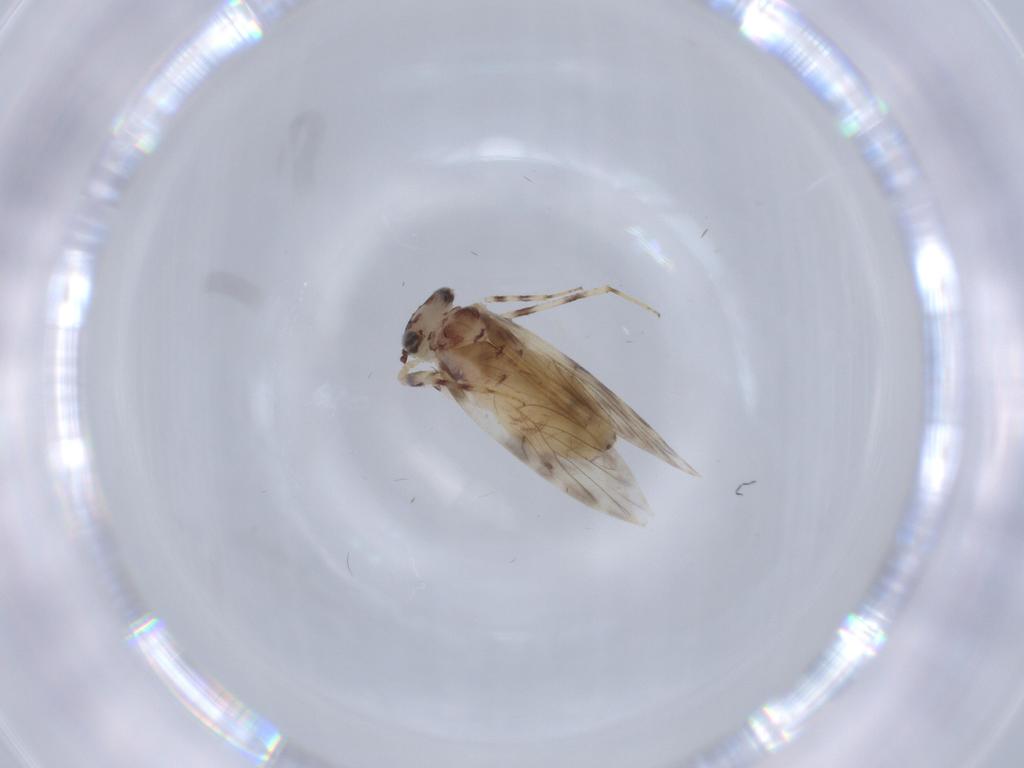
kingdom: Animalia
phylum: Arthropoda
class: Insecta
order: Psocodea
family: Lepidopsocidae
